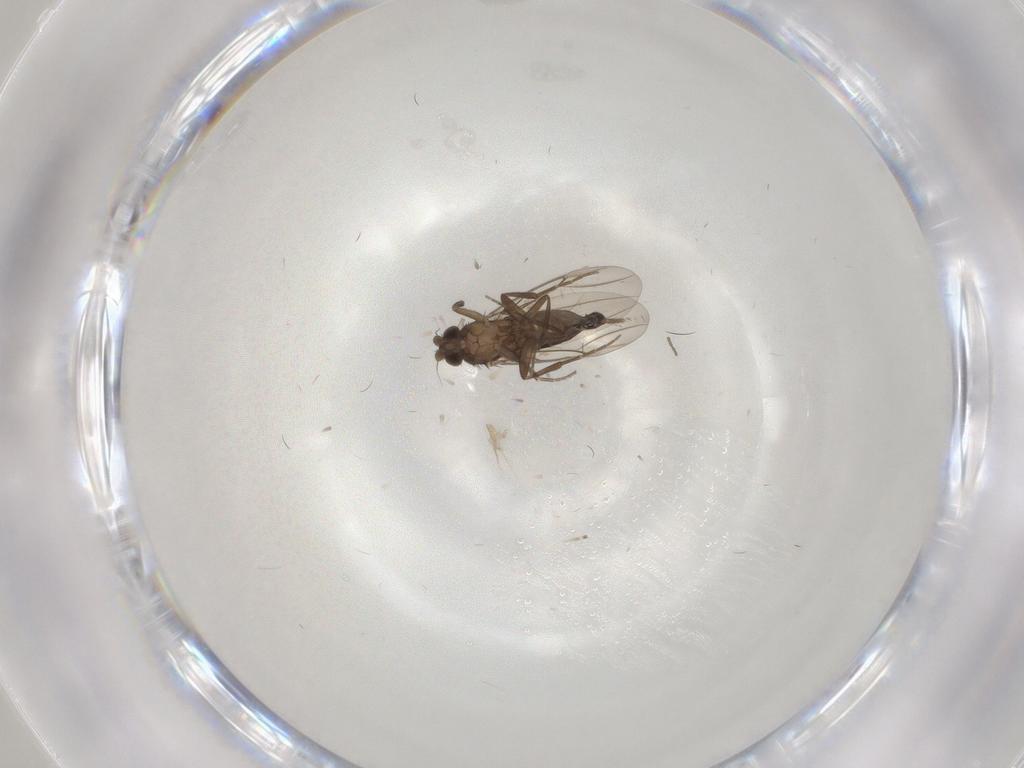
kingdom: Animalia
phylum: Arthropoda
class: Insecta
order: Diptera
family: Phoridae
